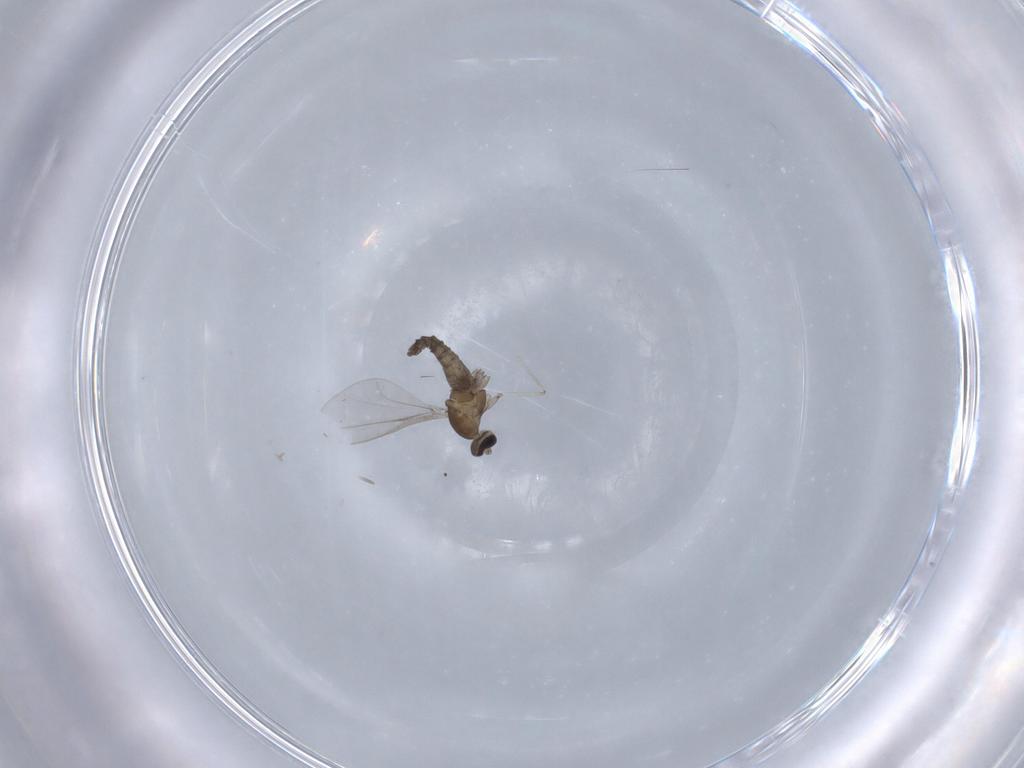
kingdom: Animalia
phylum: Arthropoda
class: Insecta
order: Diptera
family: Cecidomyiidae
